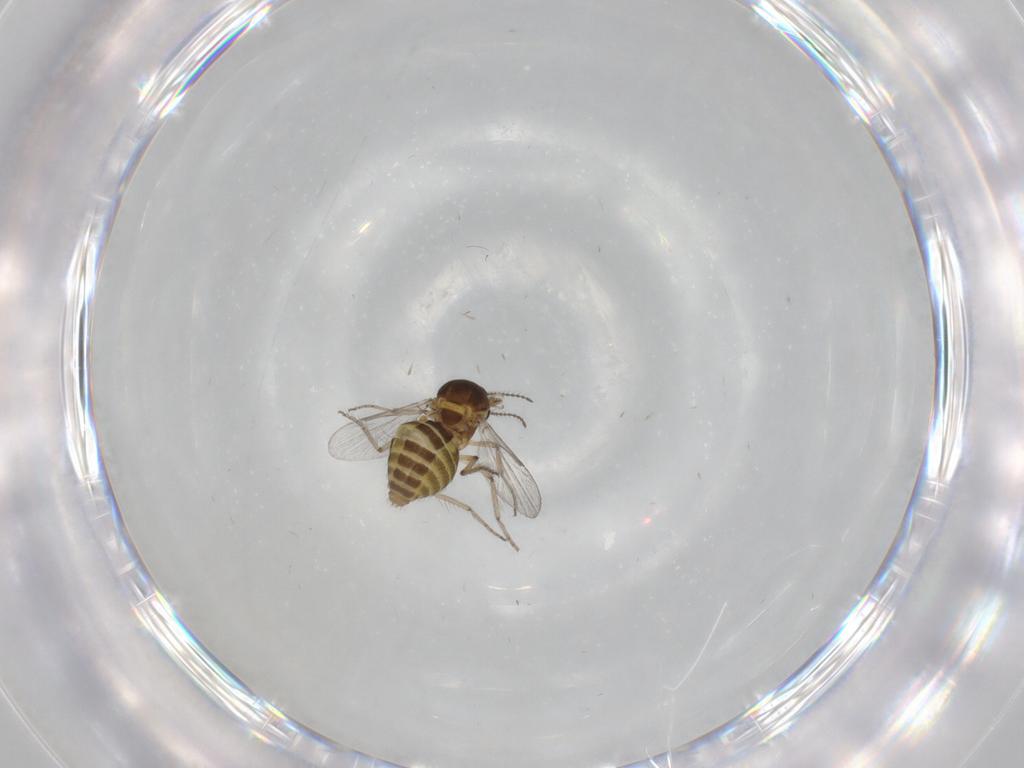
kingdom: Animalia
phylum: Arthropoda
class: Insecta
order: Diptera
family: Ceratopogonidae
